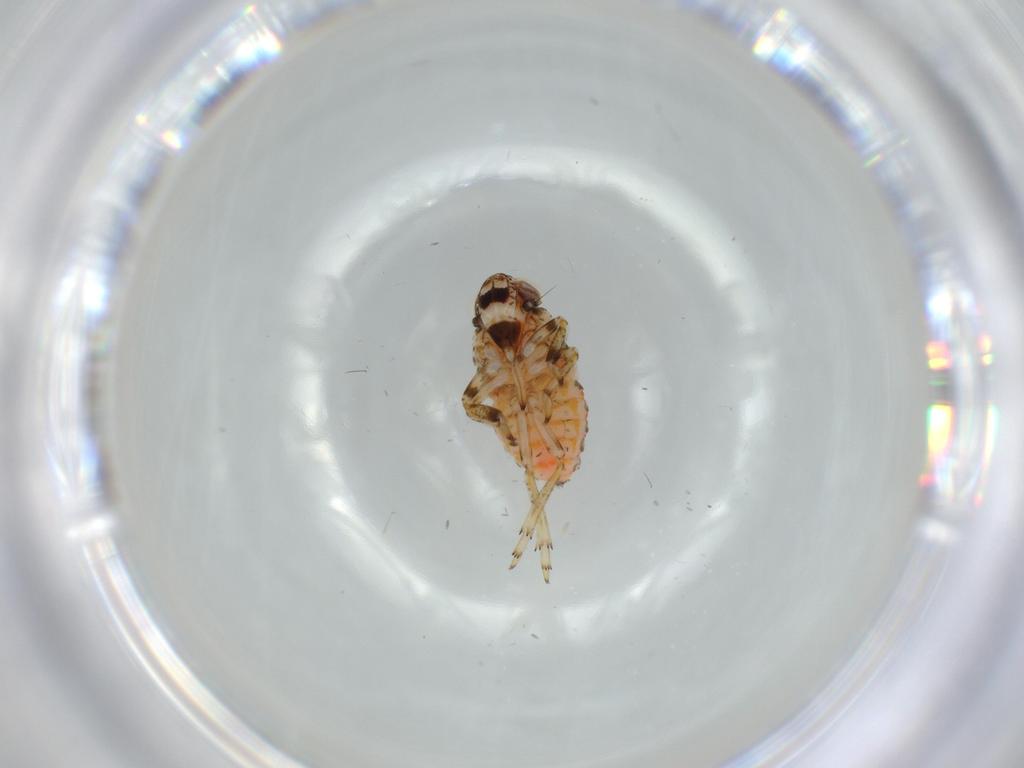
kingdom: Animalia
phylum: Arthropoda
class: Insecta
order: Hemiptera
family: Issidae
